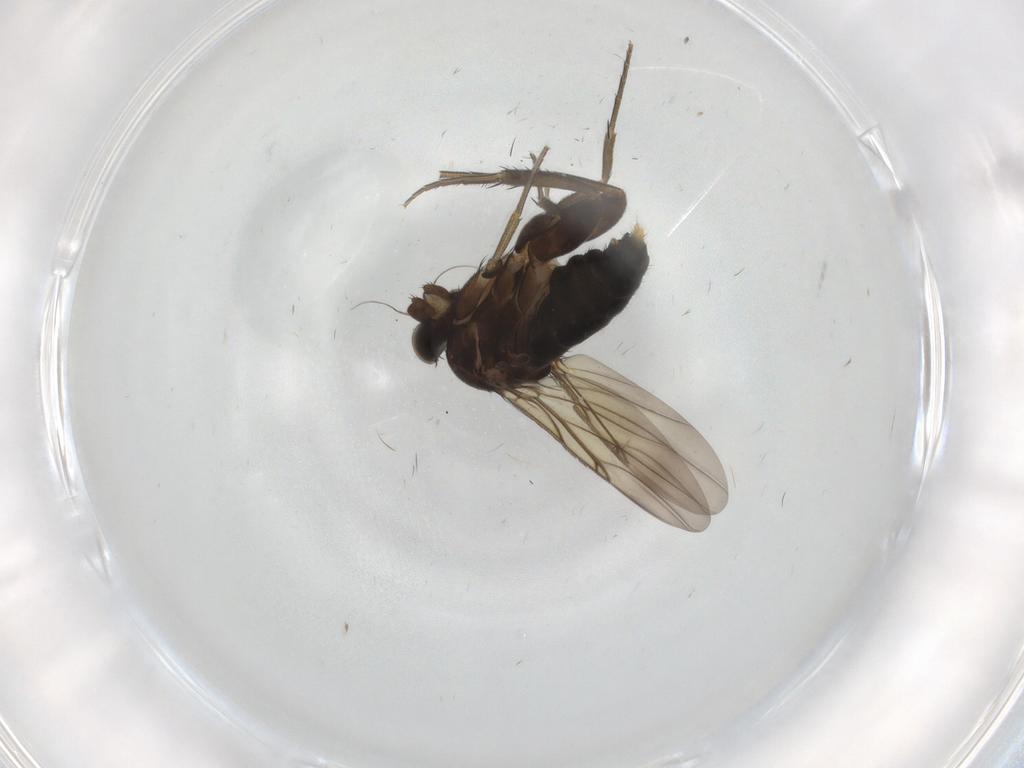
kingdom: Animalia
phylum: Arthropoda
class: Insecta
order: Diptera
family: Phoridae
